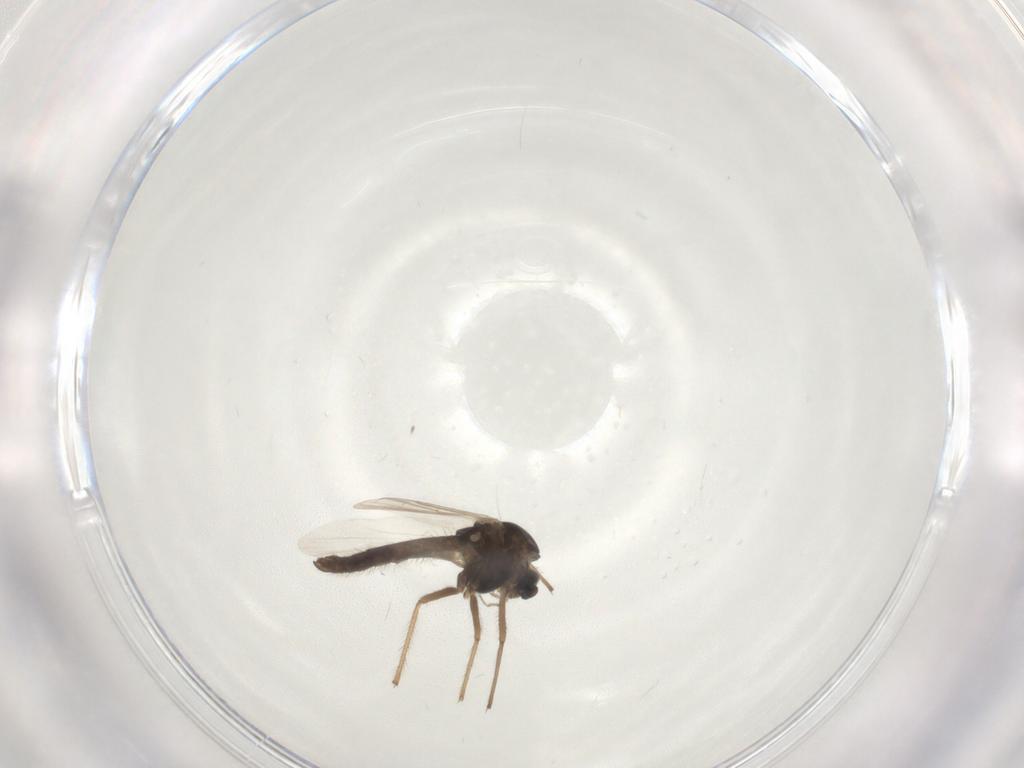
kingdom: Animalia
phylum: Arthropoda
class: Insecta
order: Diptera
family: Chironomidae
